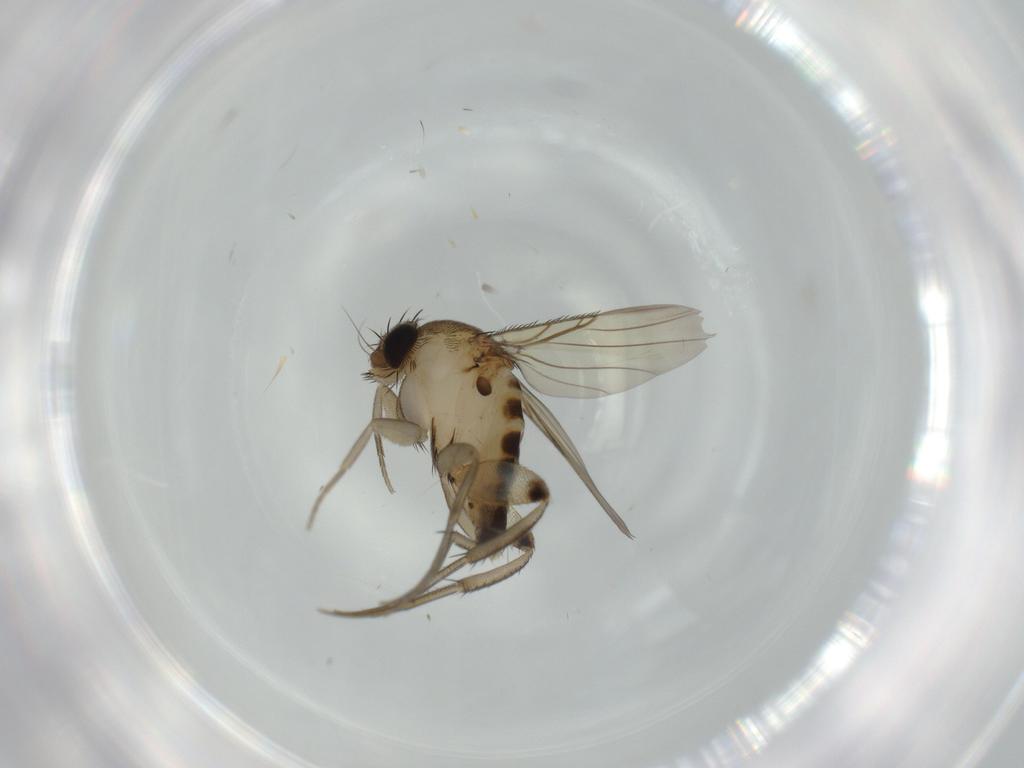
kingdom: Animalia
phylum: Arthropoda
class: Insecta
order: Diptera
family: Phoridae
